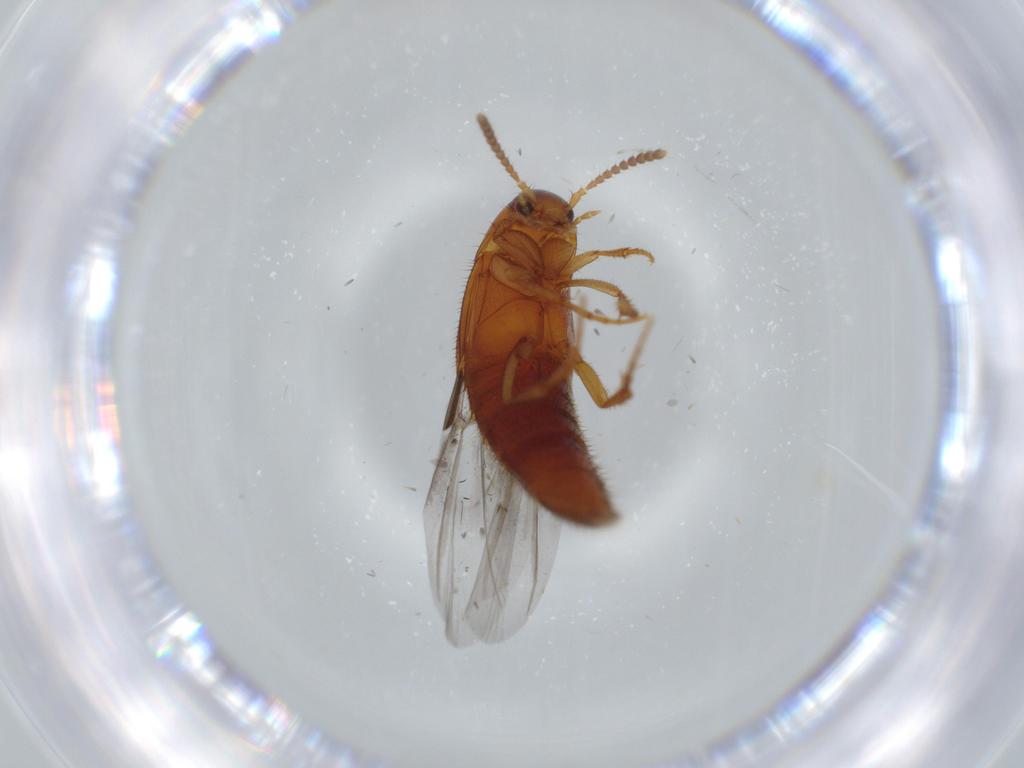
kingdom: Animalia
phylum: Arthropoda
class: Insecta
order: Coleoptera
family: Staphylinidae
